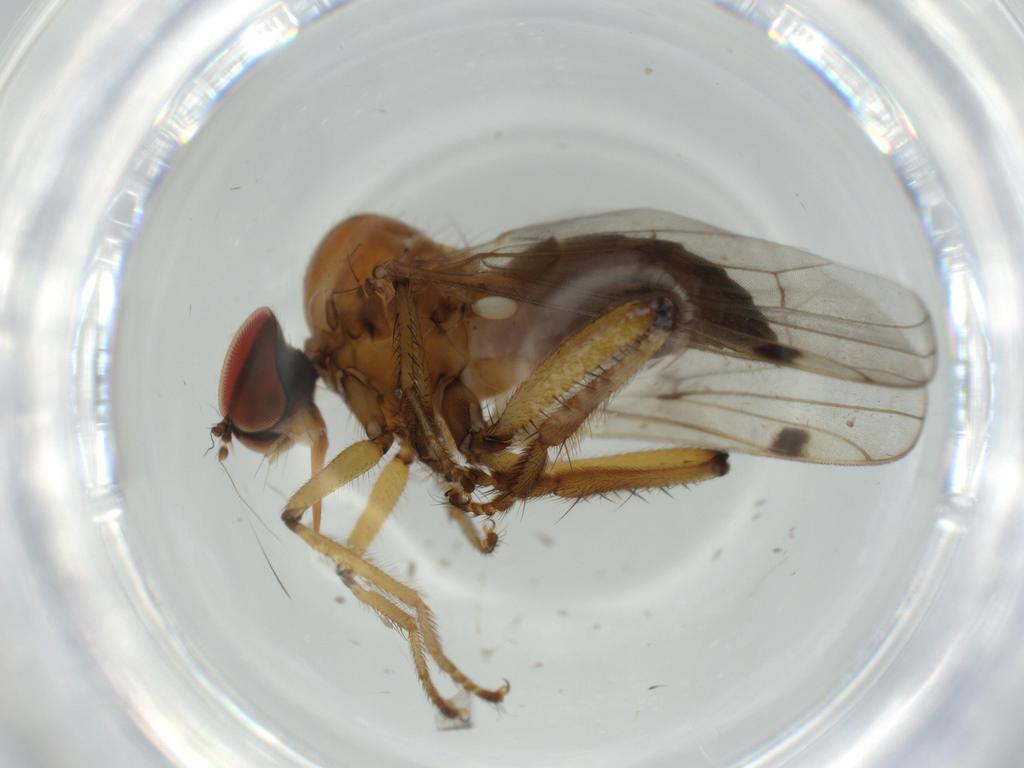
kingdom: Animalia
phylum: Arthropoda
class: Insecta
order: Diptera
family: Hybotidae
